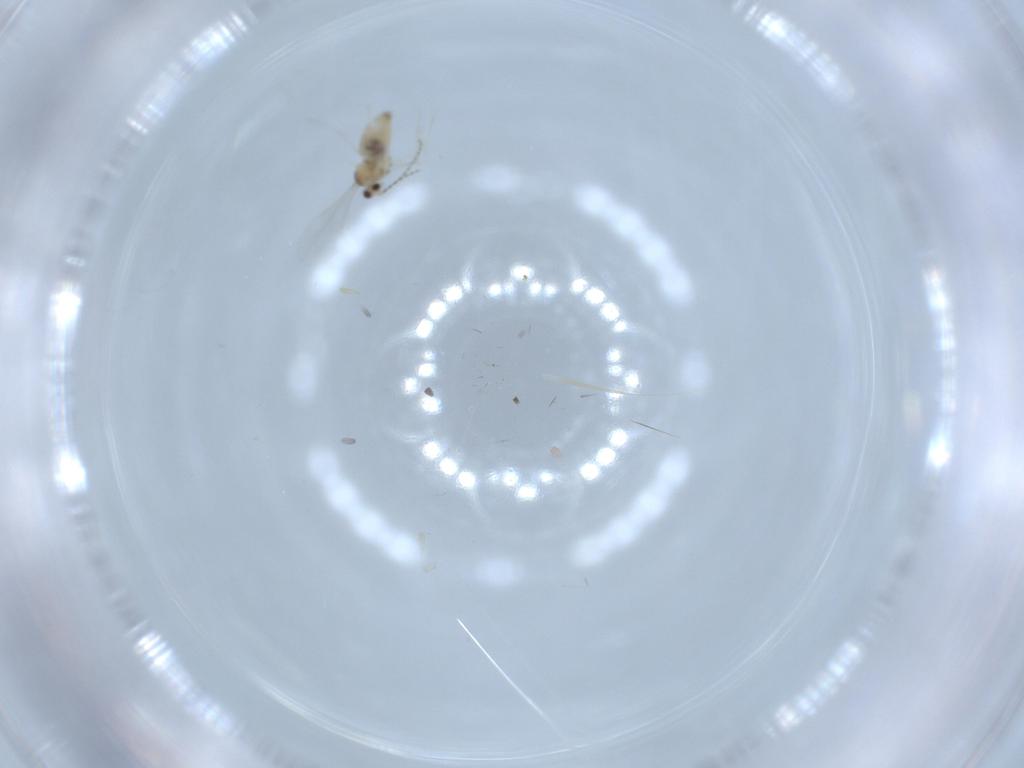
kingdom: Animalia
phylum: Arthropoda
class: Insecta
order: Diptera
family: Cecidomyiidae
